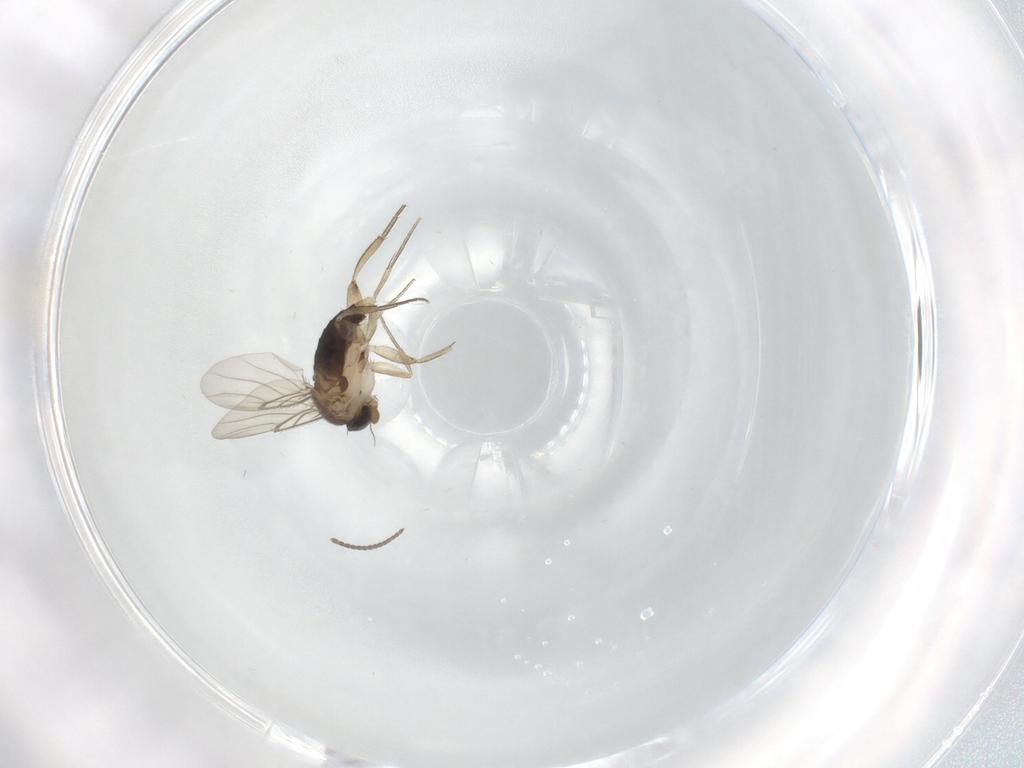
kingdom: Animalia
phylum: Arthropoda
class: Insecta
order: Diptera
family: Mycetophilidae
